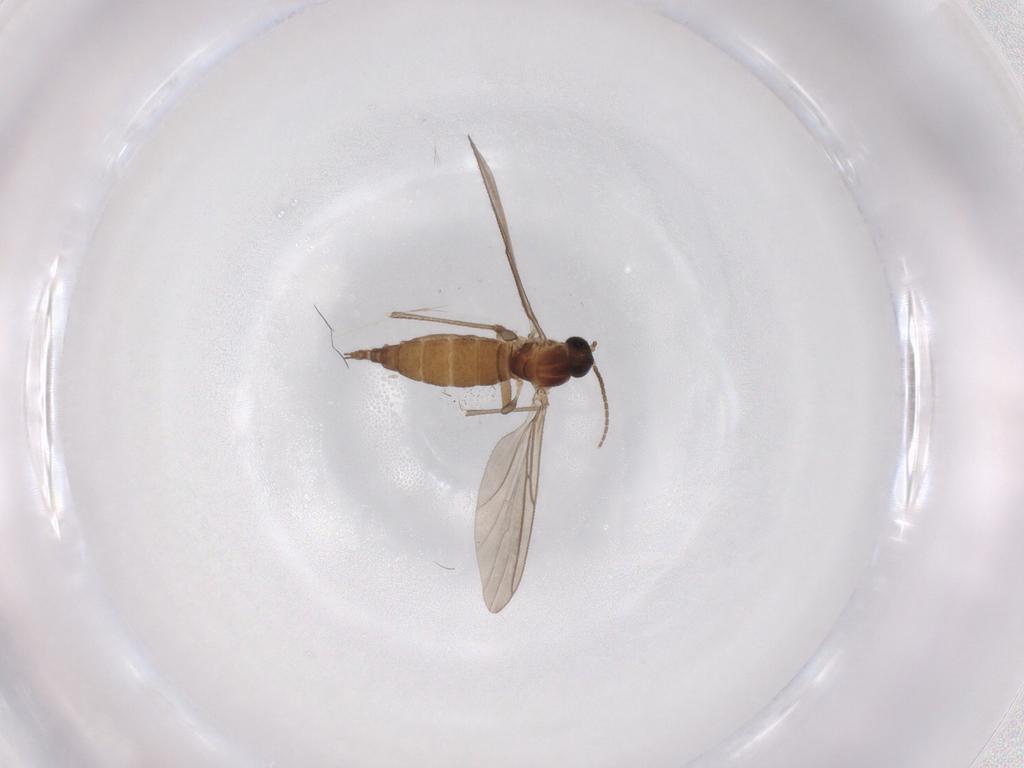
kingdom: Animalia
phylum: Arthropoda
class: Insecta
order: Diptera
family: Sciaridae
